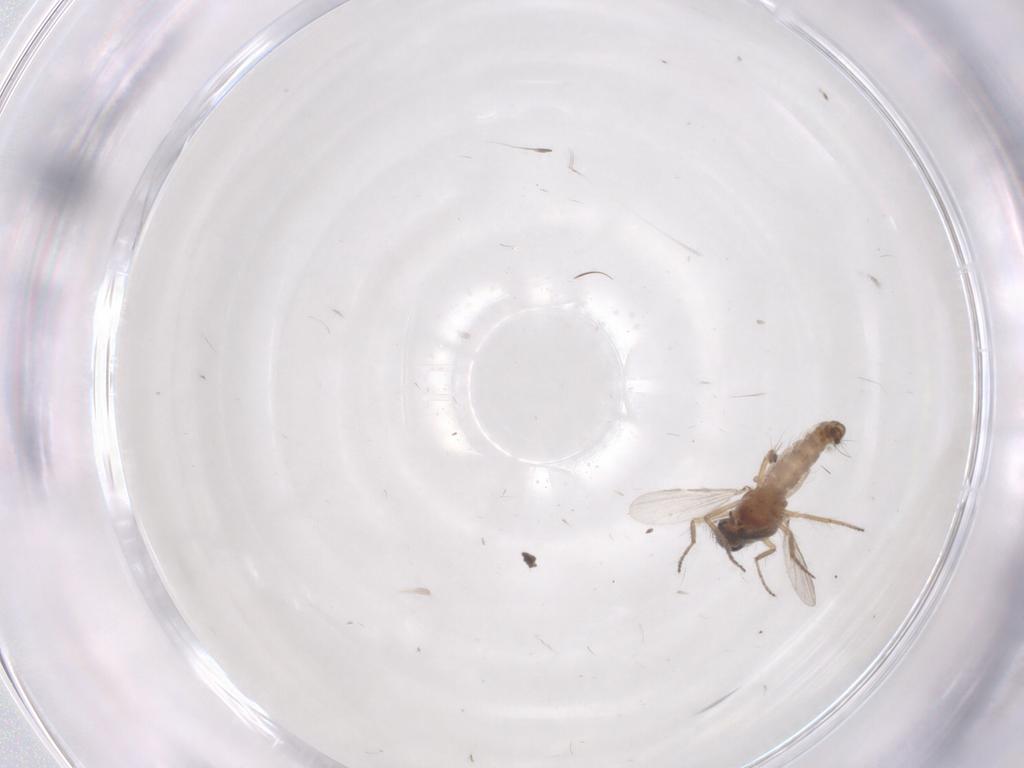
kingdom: Animalia
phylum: Arthropoda
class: Insecta
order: Diptera
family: Ceratopogonidae
